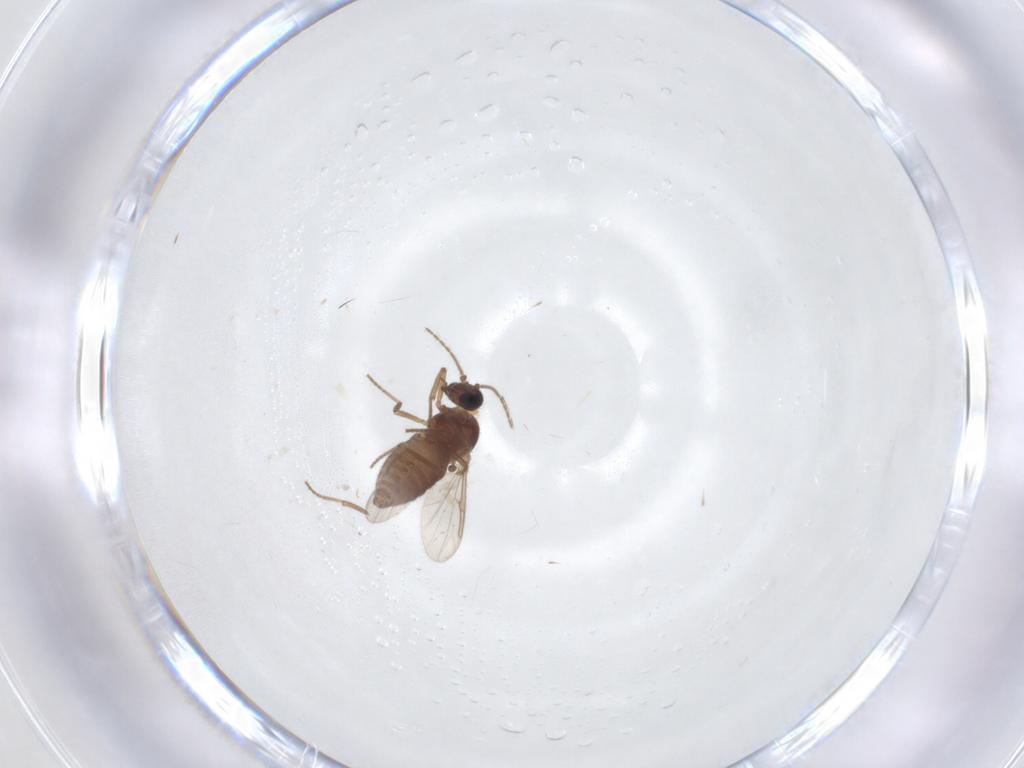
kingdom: Animalia
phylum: Arthropoda
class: Insecta
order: Diptera
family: Ceratopogonidae
